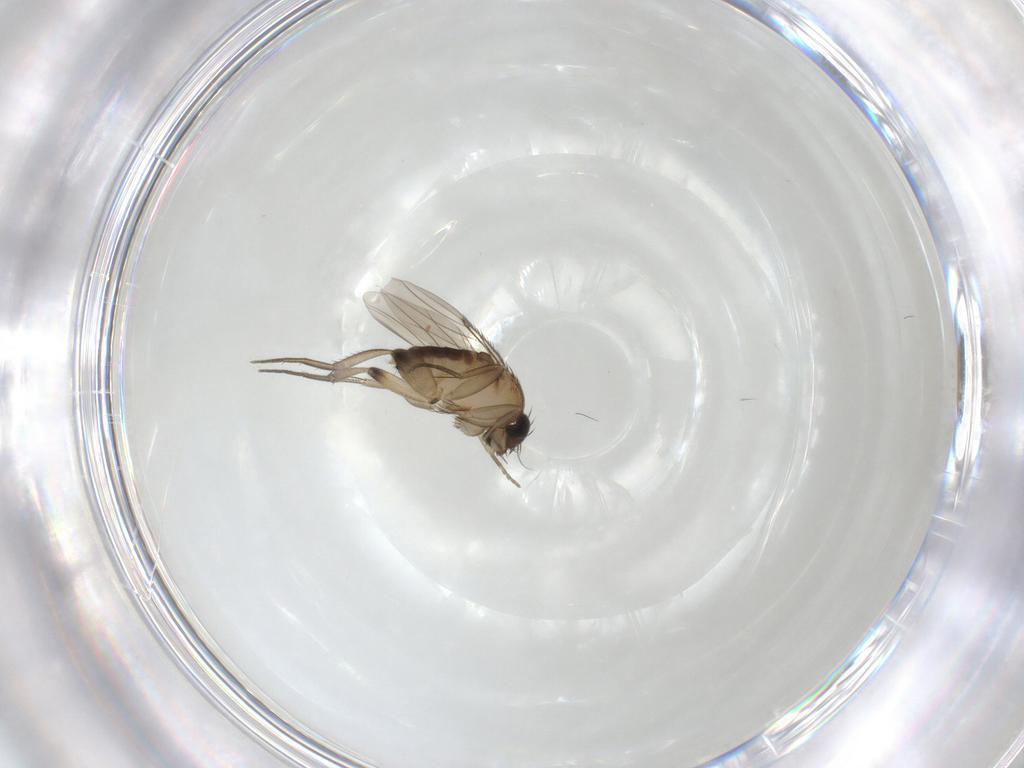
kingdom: Animalia
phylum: Arthropoda
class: Insecta
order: Diptera
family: Phoridae
